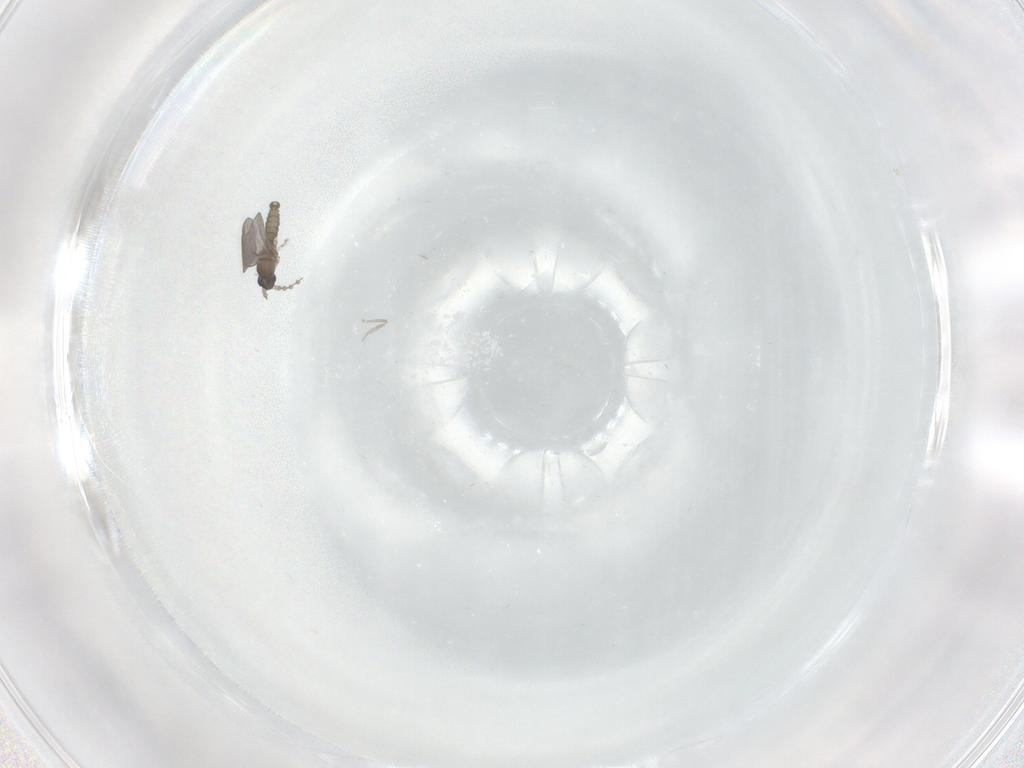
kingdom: Animalia
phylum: Arthropoda
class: Insecta
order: Diptera
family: Cecidomyiidae
